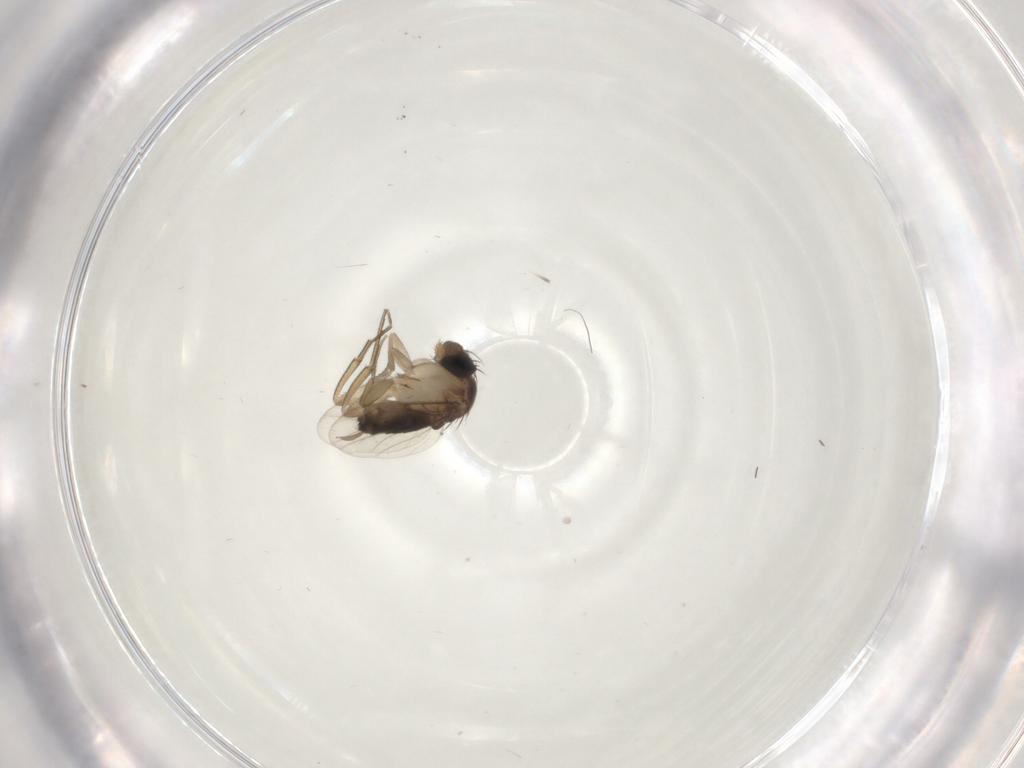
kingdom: Animalia
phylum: Arthropoda
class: Insecta
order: Diptera
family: Phoridae
